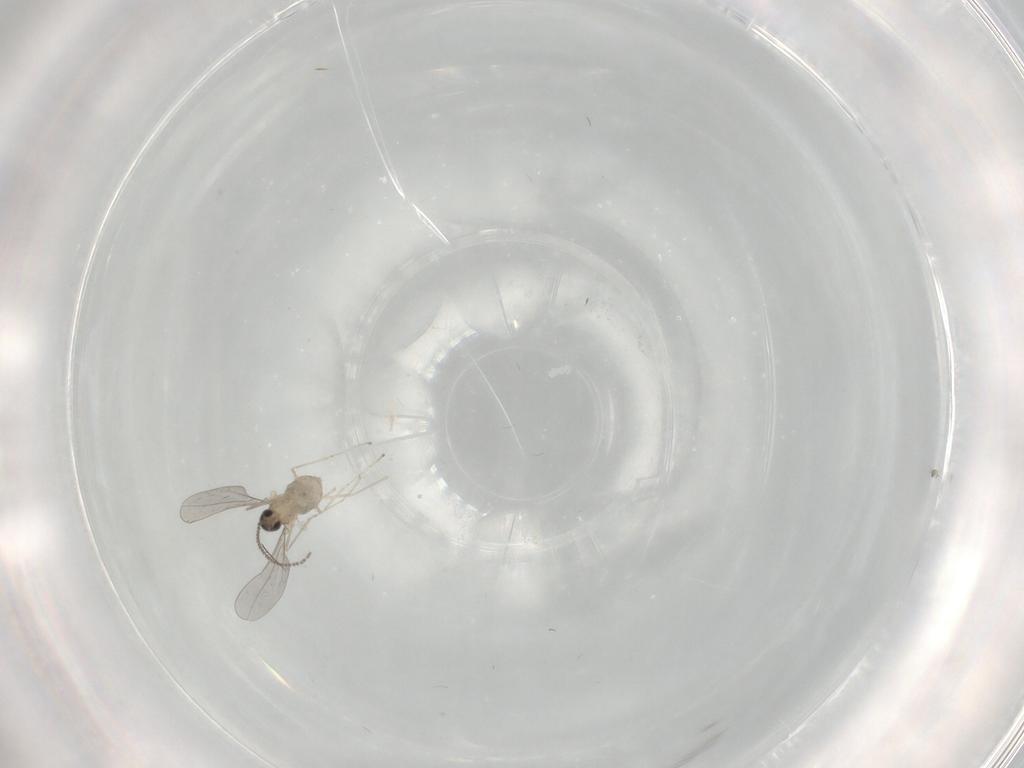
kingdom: Animalia
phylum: Arthropoda
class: Insecta
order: Diptera
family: Cecidomyiidae
